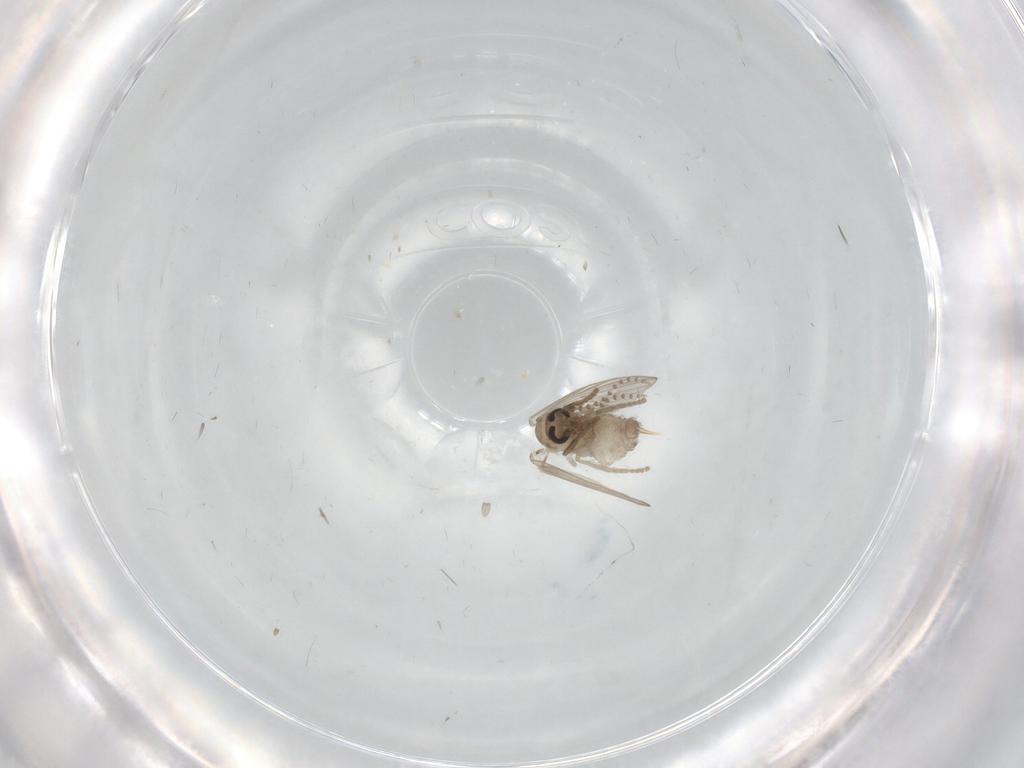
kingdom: Animalia
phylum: Arthropoda
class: Insecta
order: Diptera
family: Psychodidae
